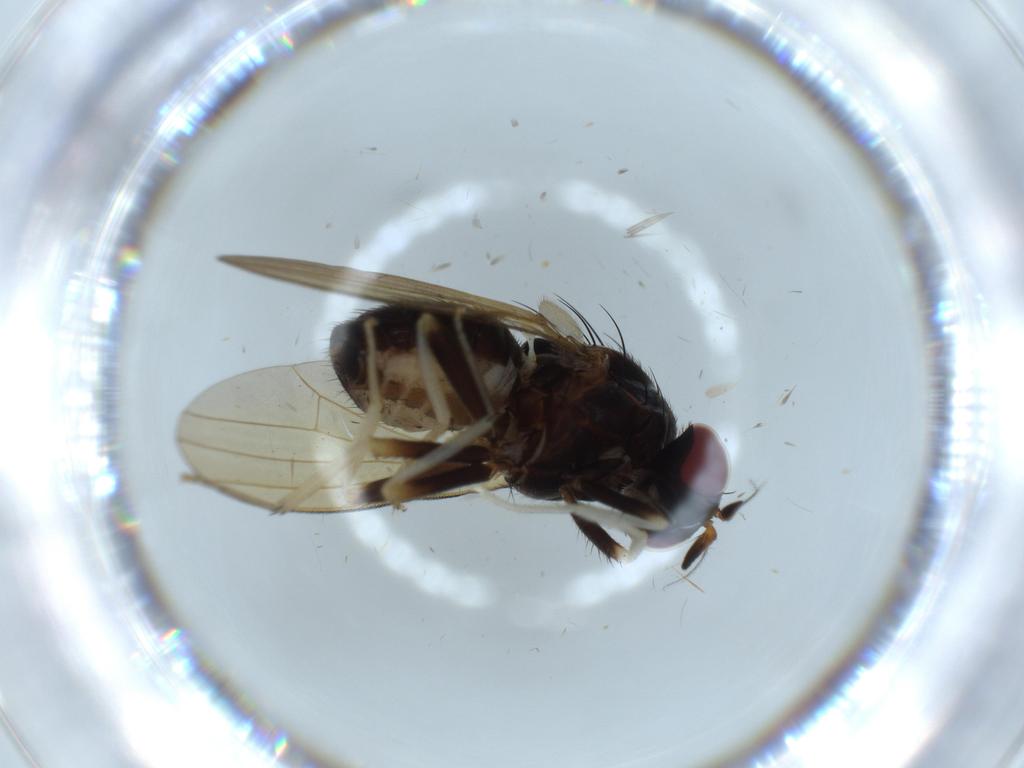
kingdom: Animalia
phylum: Arthropoda
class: Insecta
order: Diptera
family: Lauxaniidae
